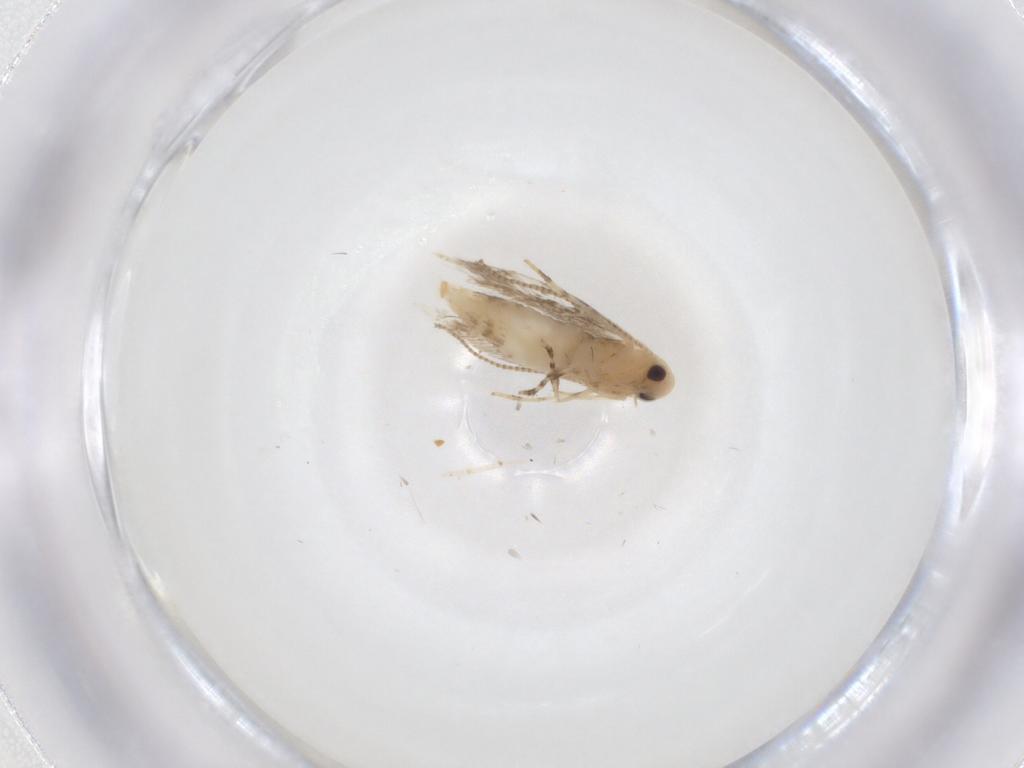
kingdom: Animalia
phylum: Arthropoda
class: Insecta
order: Lepidoptera
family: Gracillariidae
